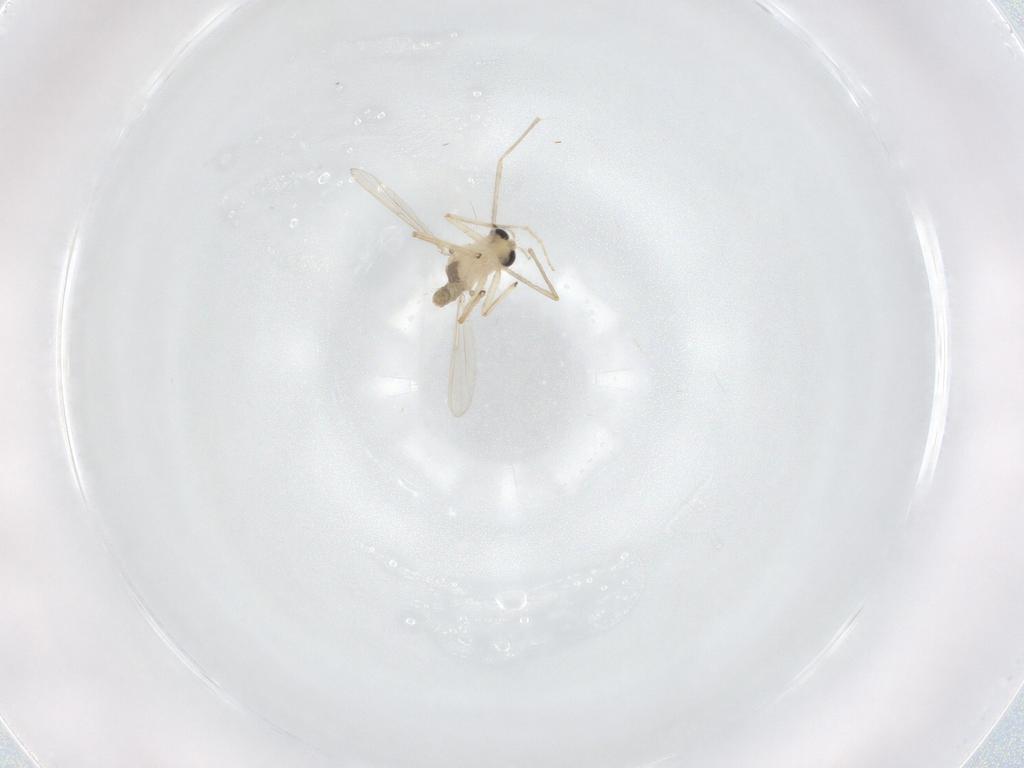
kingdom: Animalia
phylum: Arthropoda
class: Insecta
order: Diptera
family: Chironomidae
